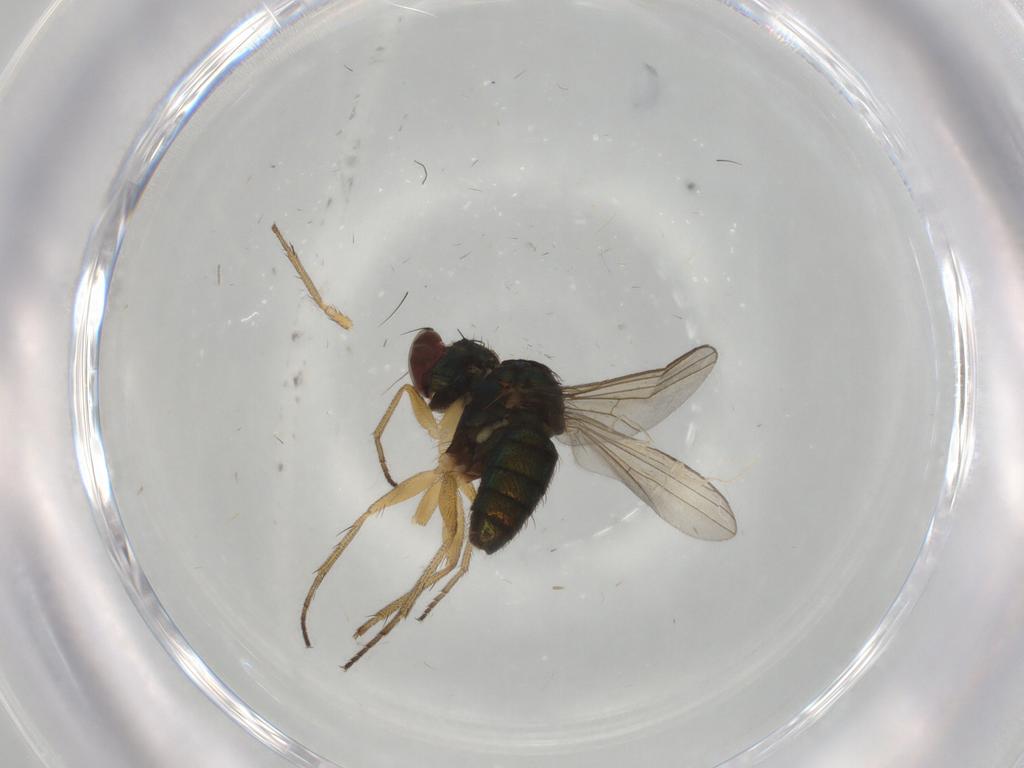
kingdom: Animalia
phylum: Arthropoda
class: Insecta
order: Diptera
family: Dolichopodidae
